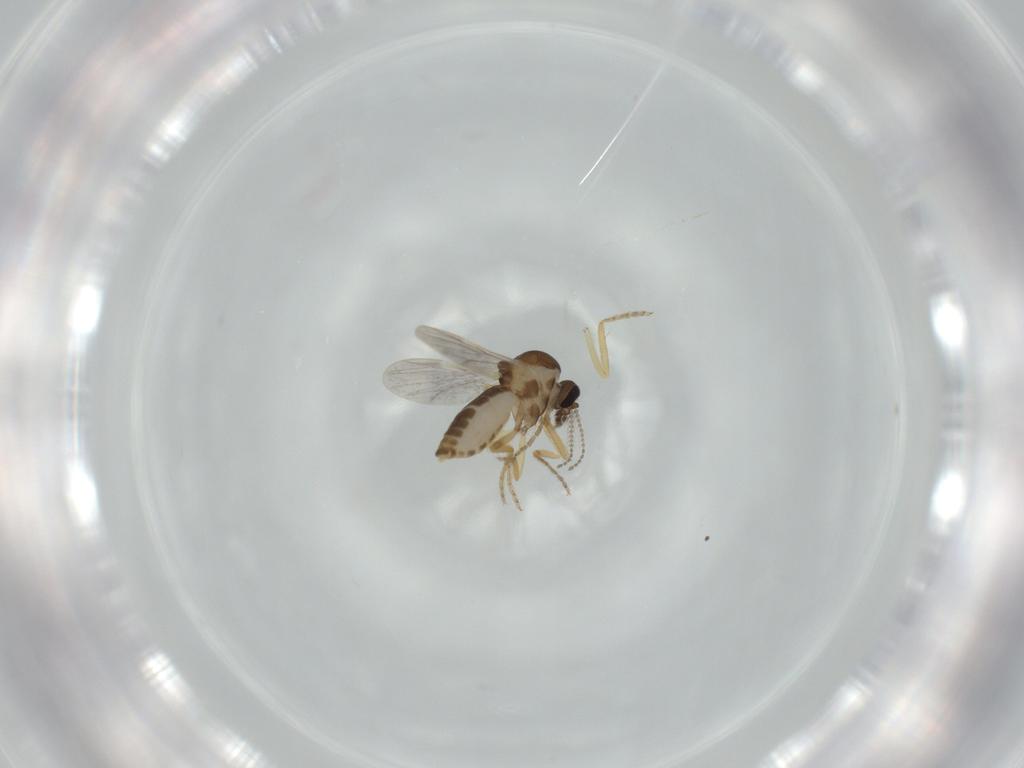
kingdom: Animalia
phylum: Arthropoda
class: Insecta
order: Diptera
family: Ceratopogonidae
